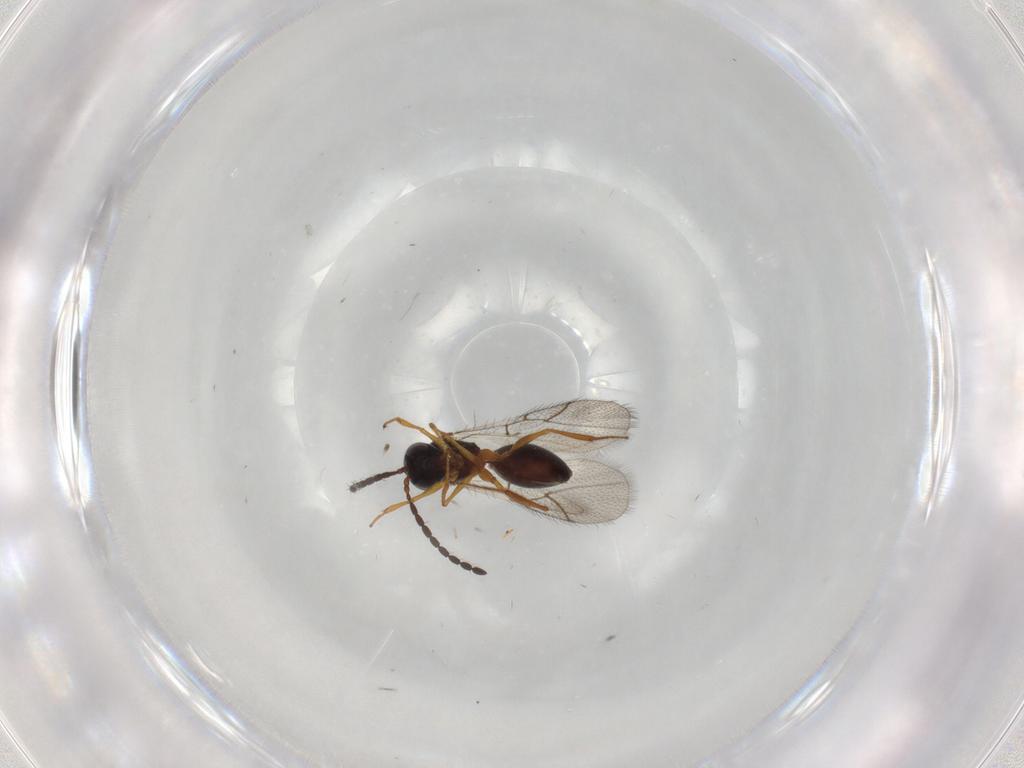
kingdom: Animalia
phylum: Arthropoda
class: Insecta
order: Hymenoptera
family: Figitidae
